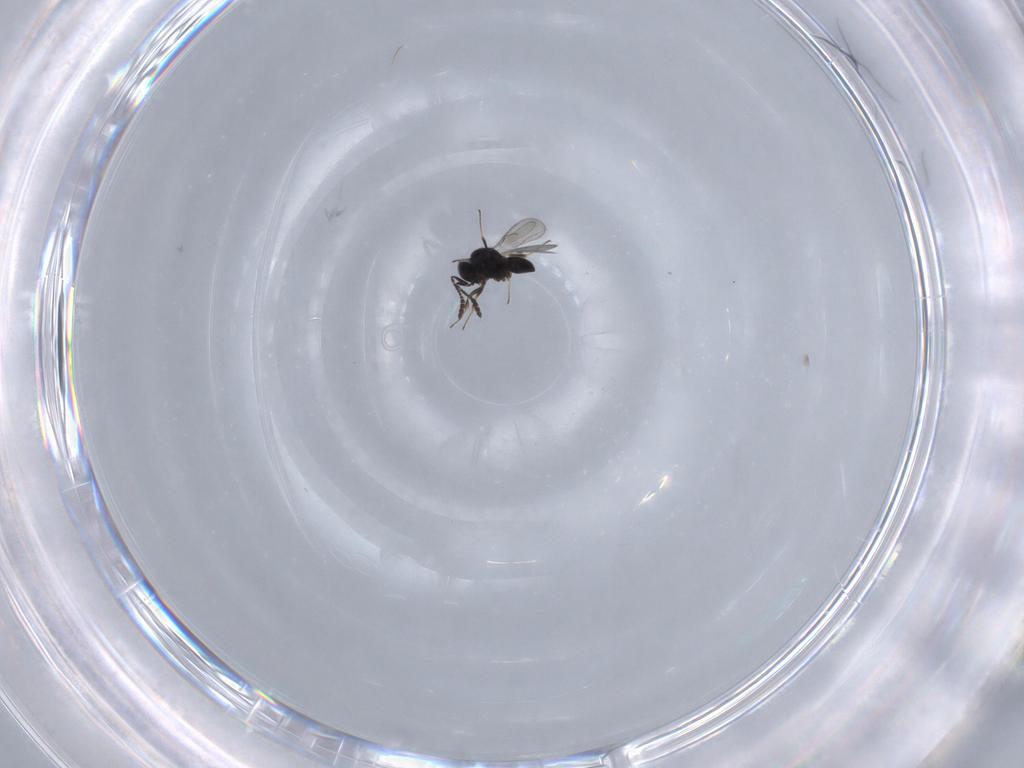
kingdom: Animalia
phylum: Arthropoda
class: Insecta
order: Hymenoptera
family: Scelionidae
